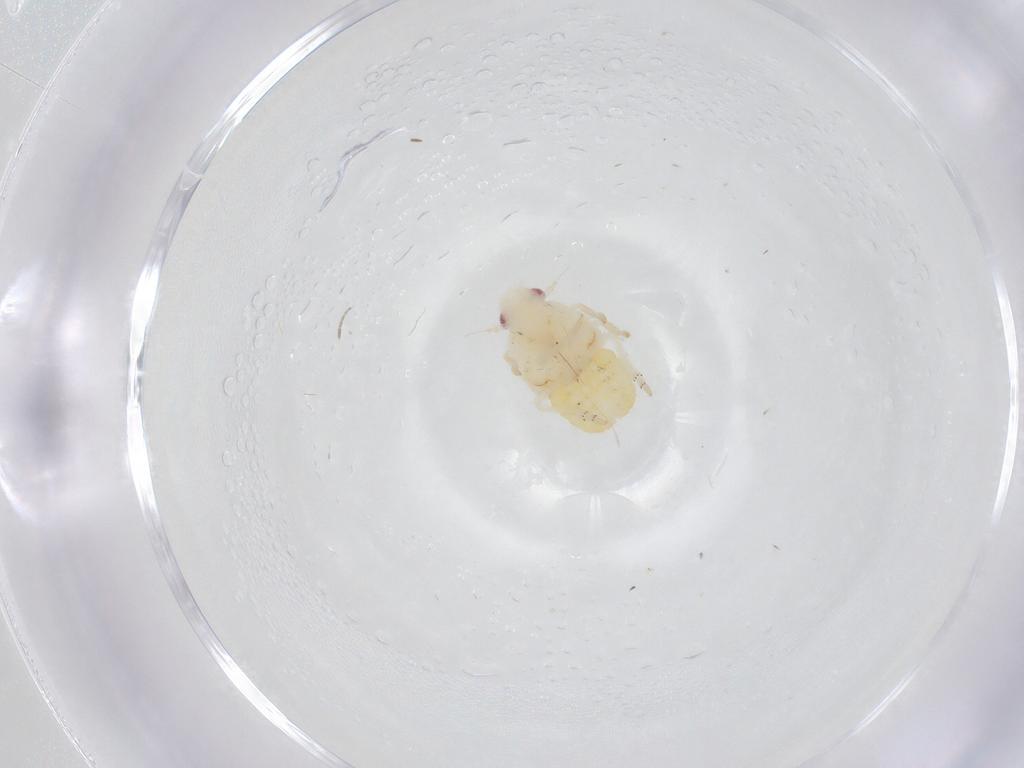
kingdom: Animalia
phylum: Arthropoda
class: Insecta
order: Hemiptera
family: Fulgoroidea_incertae_sedis
